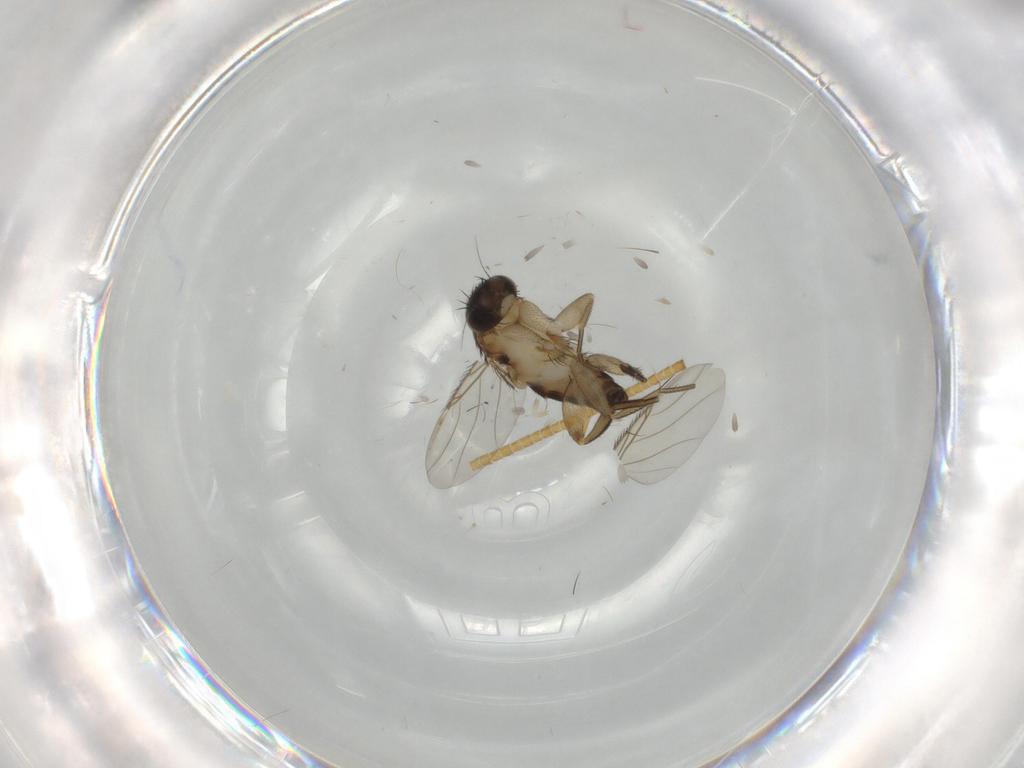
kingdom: Animalia
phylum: Arthropoda
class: Insecta
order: Diptera
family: Phoridae
